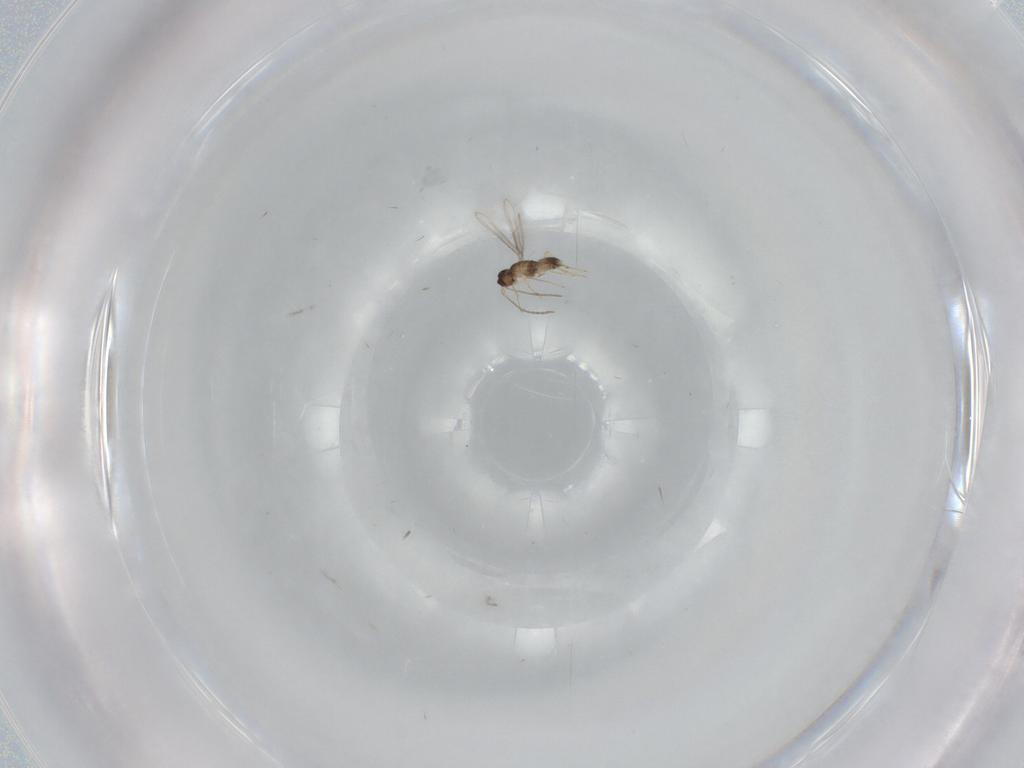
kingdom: Animalia
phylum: Arthropoda
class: Insecta
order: Hymenoptera
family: Mymaridae
